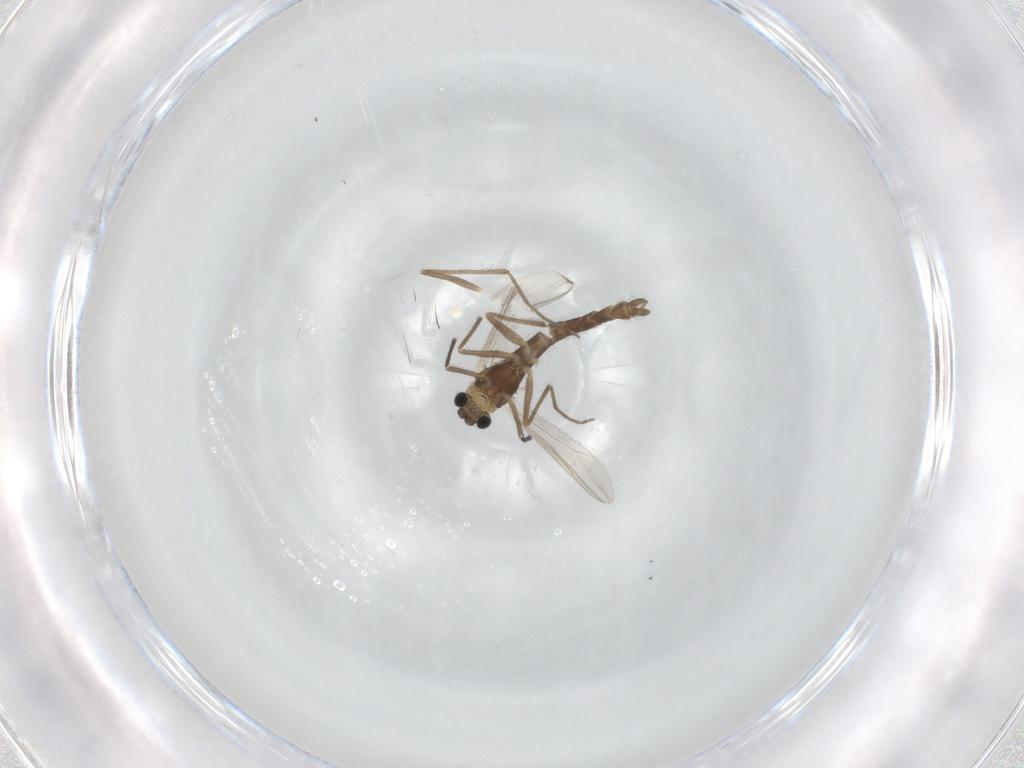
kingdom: Animalia
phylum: Arthropoda
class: Insecta
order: Diptera
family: Chironomidae
